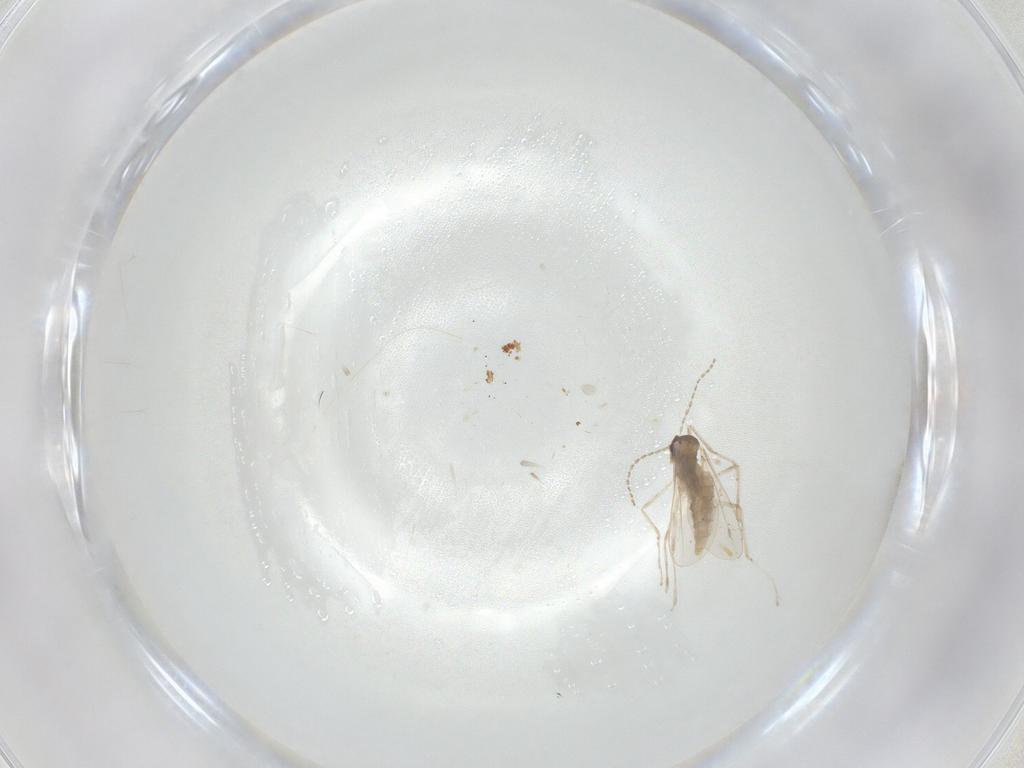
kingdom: Animalia
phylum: Arthropoda
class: Insecta
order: Diptera
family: Cecidomyiidae
